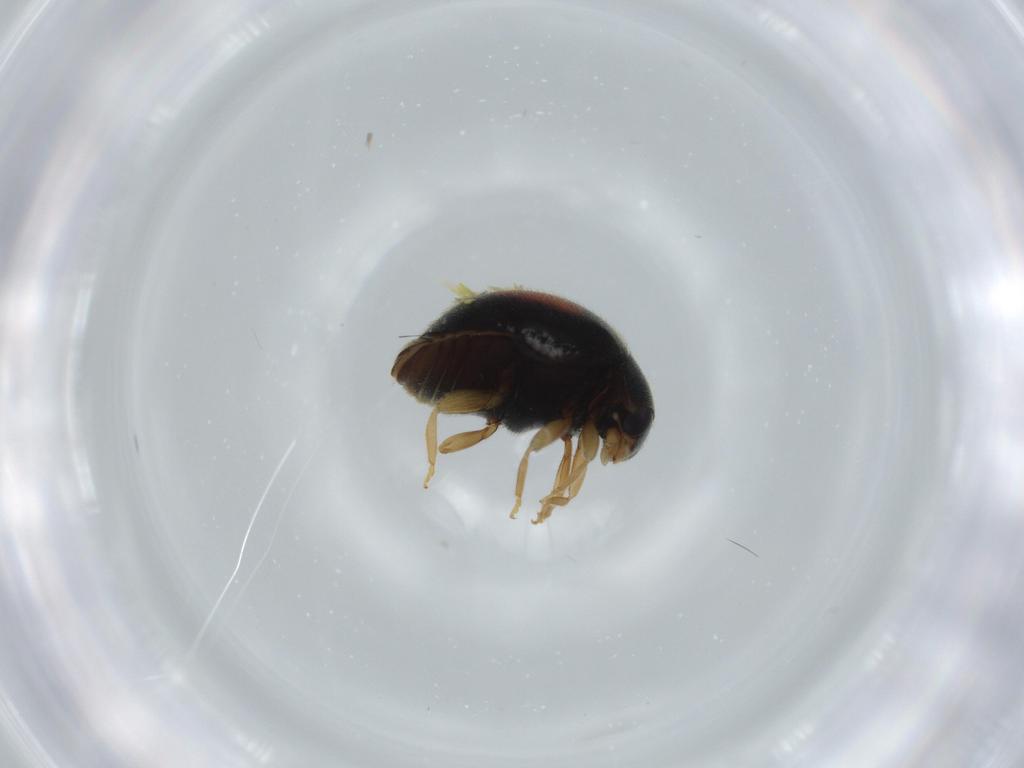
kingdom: Animalia
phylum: Arthropoda
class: Insecta
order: Coleoptera
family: Coccinellidae
